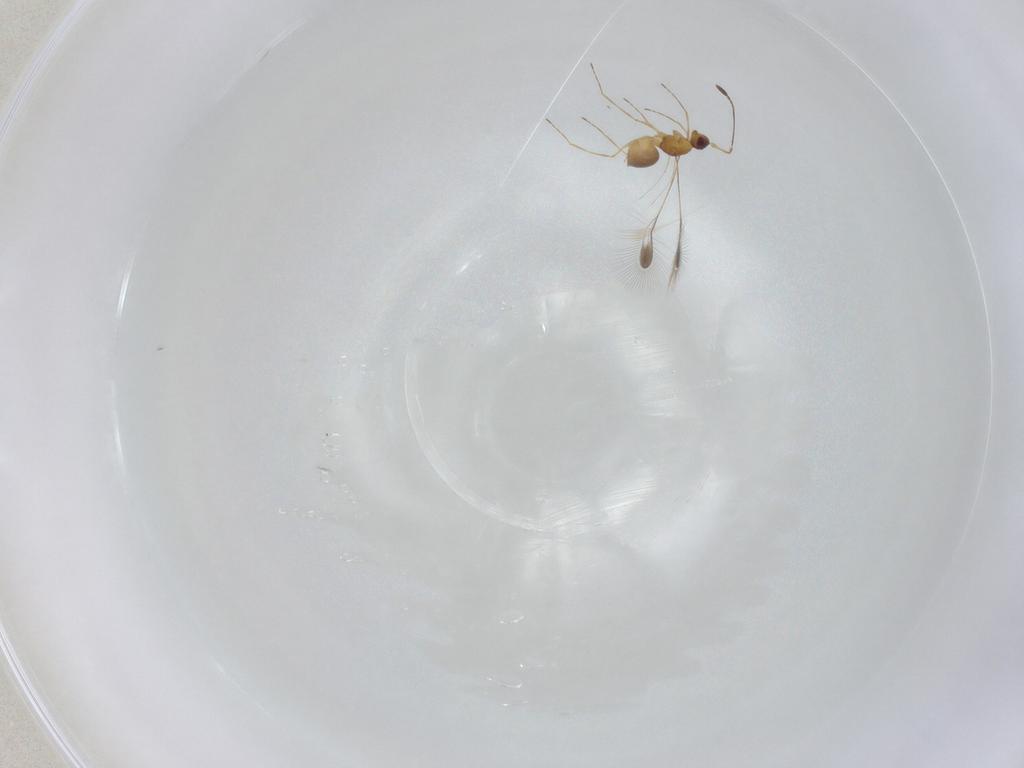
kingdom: Animalia
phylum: Arthropoda
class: Insecta
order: Hymenoptera
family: Mymaridae
